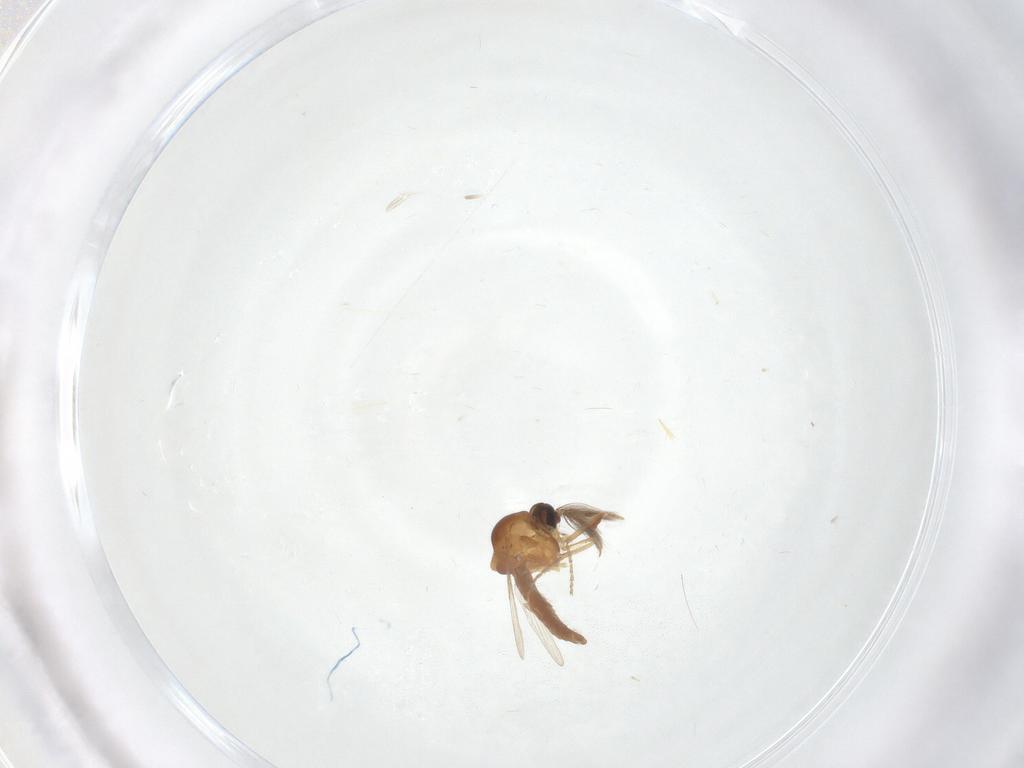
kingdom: Animalia
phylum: Arthropoda
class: Insecta
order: Diptera
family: Ceratopogonidae
